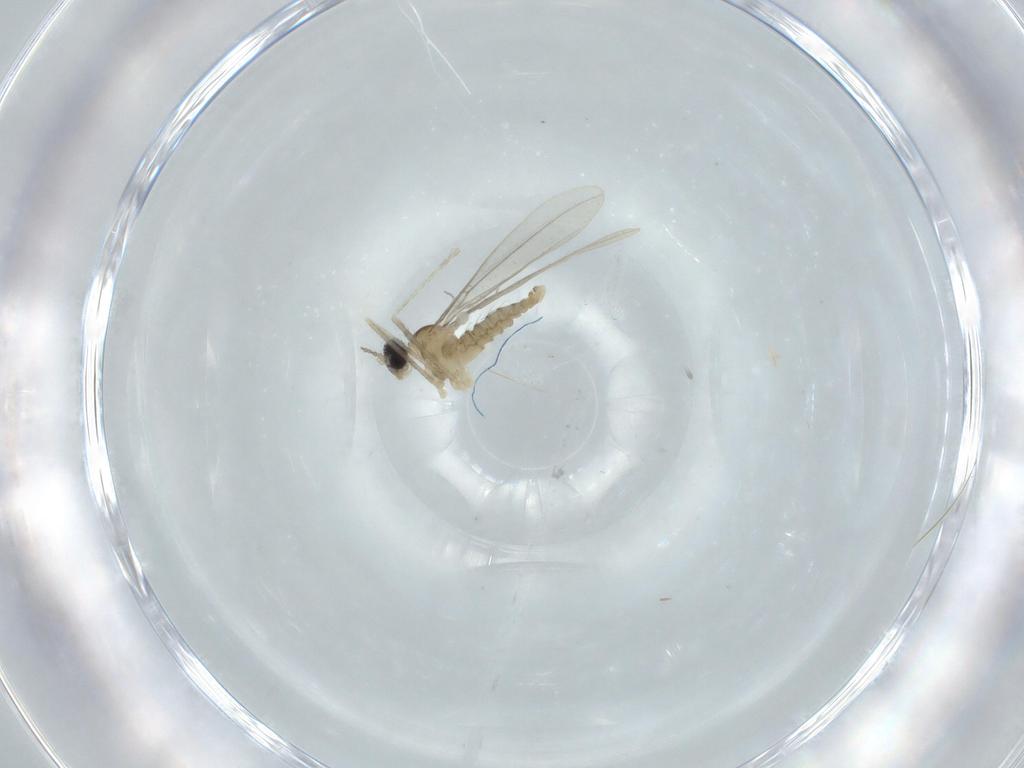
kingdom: Animalia
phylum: Arthropoda
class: Insecta
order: Diptera
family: Cecidomyiidae
